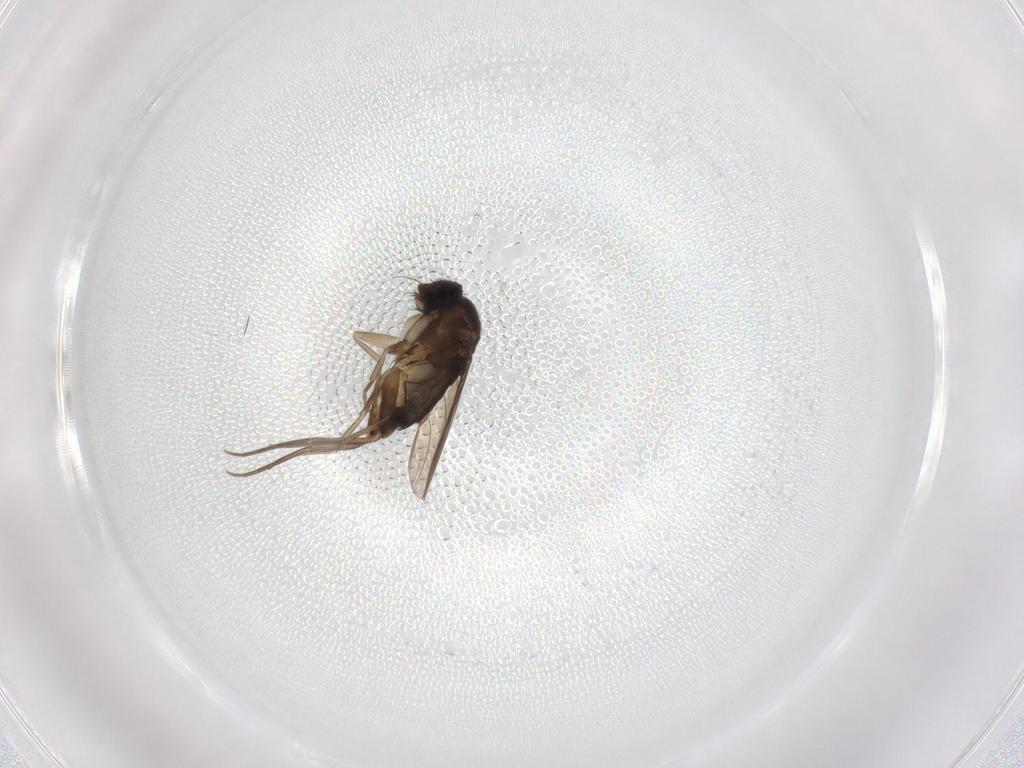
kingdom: Animalia
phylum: Arthropoda
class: Insecta
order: Diptera
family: Phoridae
